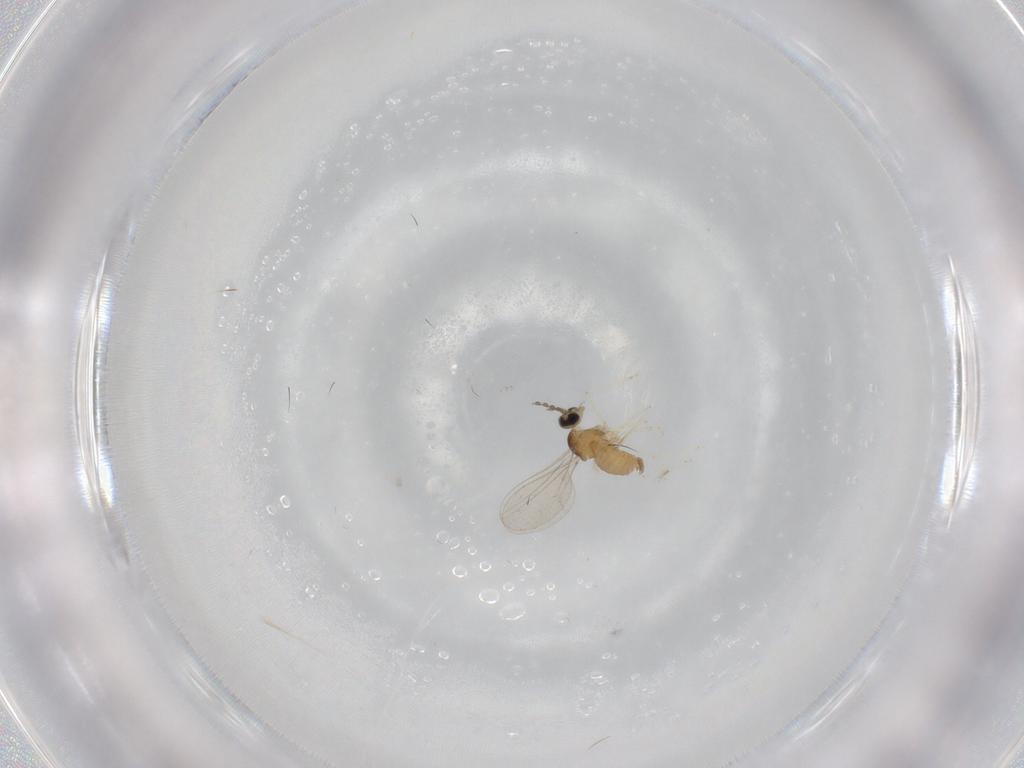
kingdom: Animalia
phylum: Arthropoda
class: Insecta
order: Diptera
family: Cecidomyiidae
